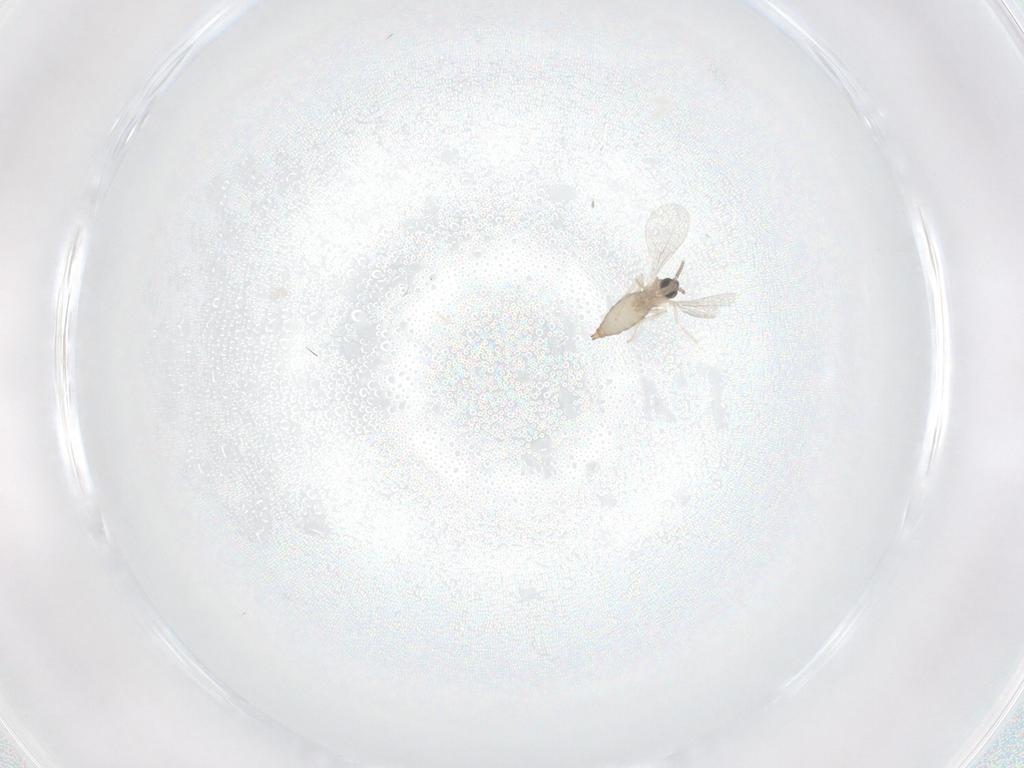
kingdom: Animalia
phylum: Arthropoda
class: Insecta
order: Diptera
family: Cecidomyiidae
